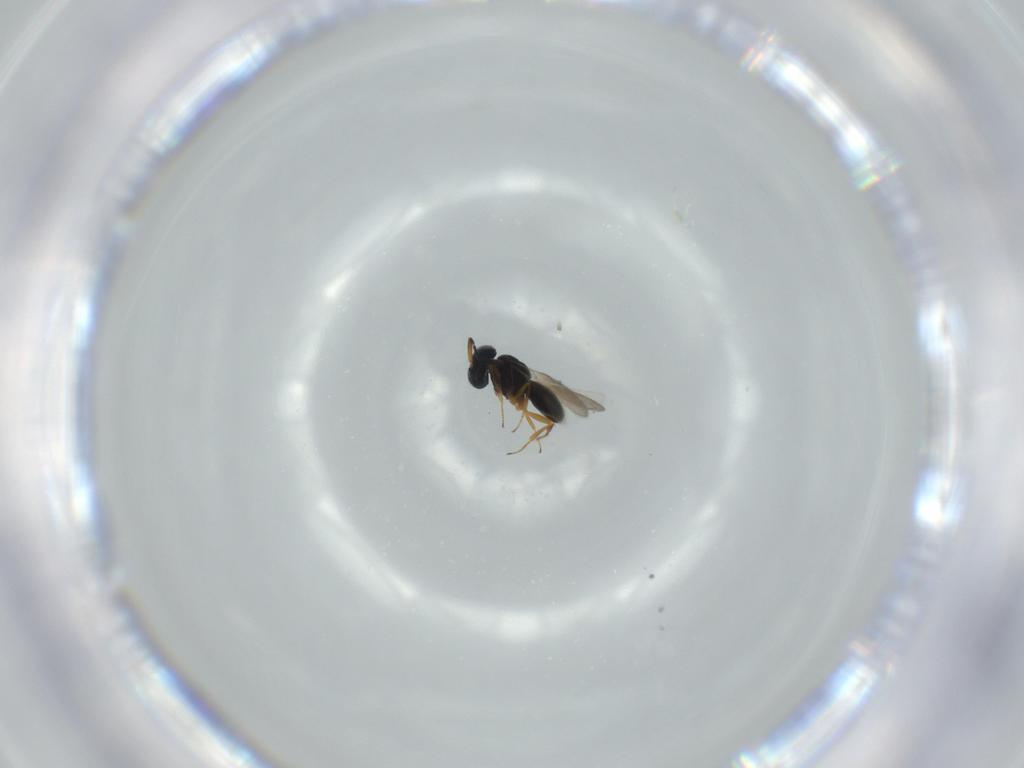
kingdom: Animalia
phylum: Arthropoda
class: Insecta
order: Hymenoptera
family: Scelionidae
